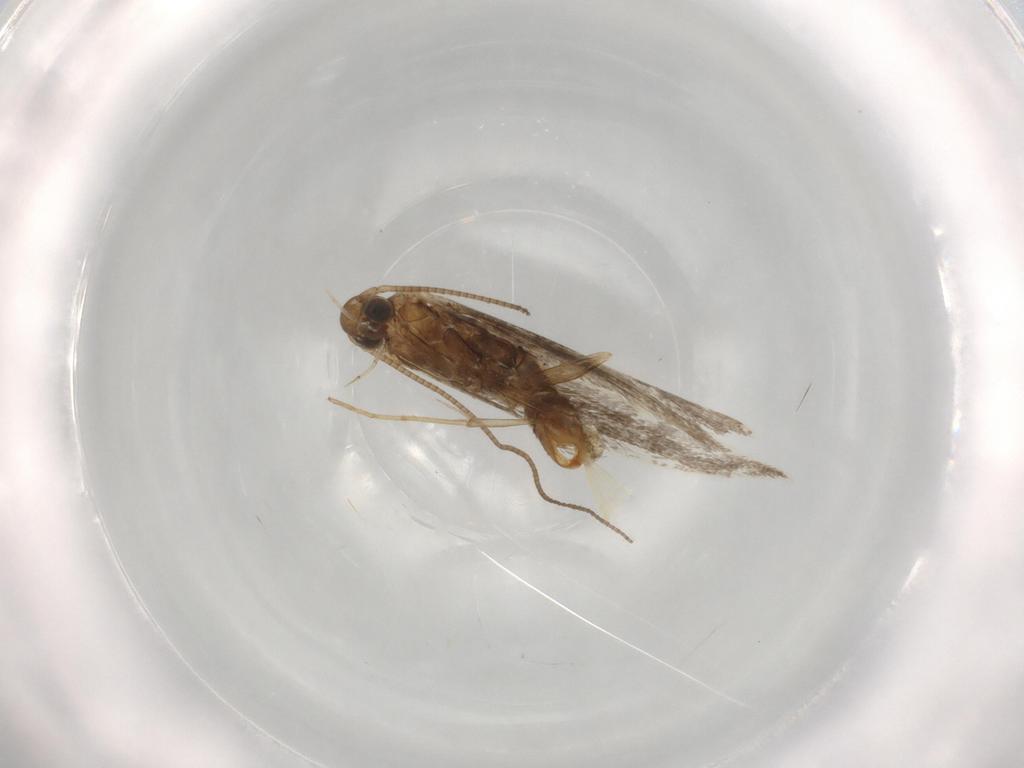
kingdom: Animalia
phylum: Arthropoda
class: Insecta
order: Lepidoptera
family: Gracillariidae
